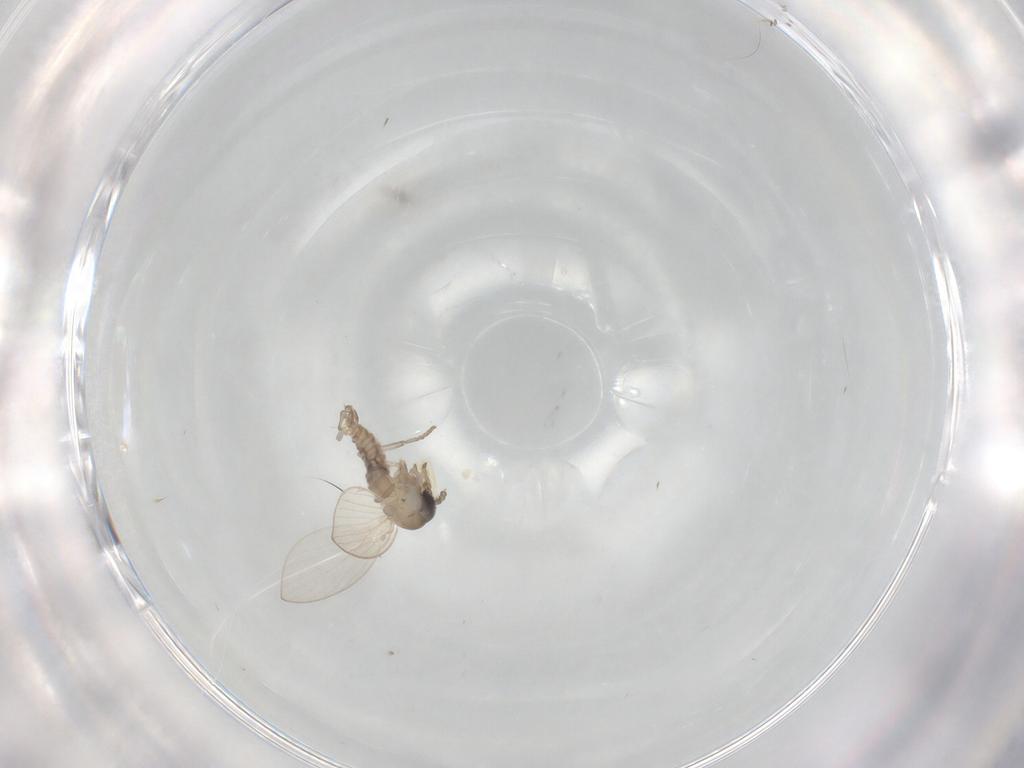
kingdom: Animalia
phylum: Arthropoda
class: Insecta
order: Diptera
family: Psychodidae
